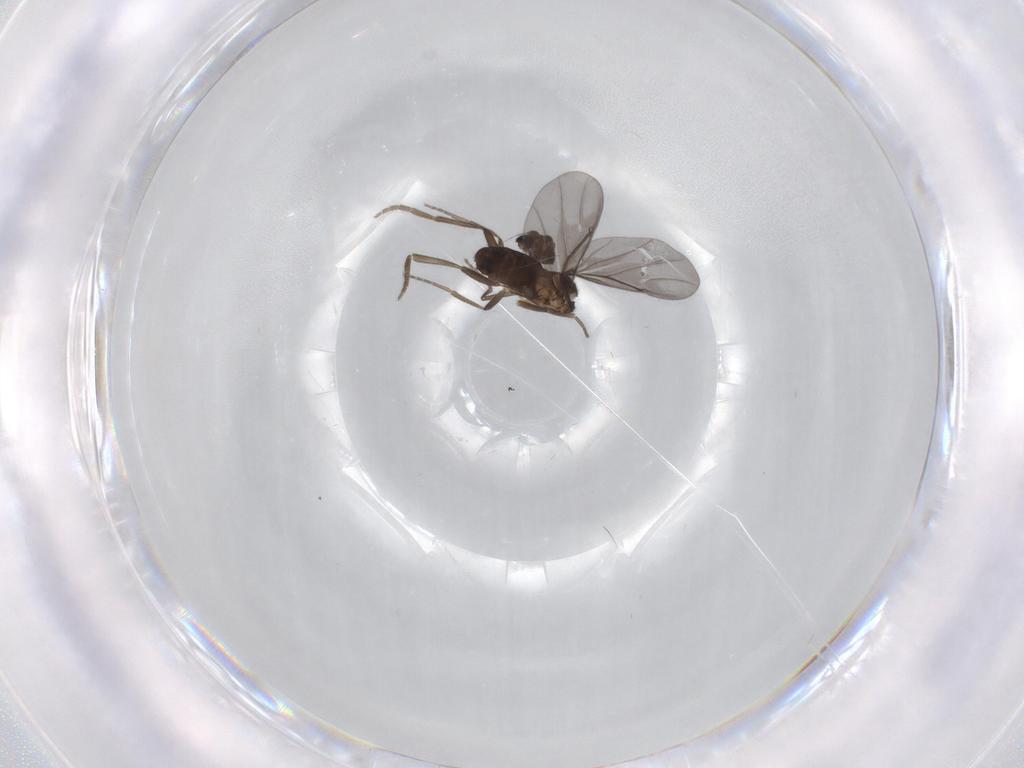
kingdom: Animalia
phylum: Arthropoda
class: Insecta
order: Diptera
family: Phoridae
